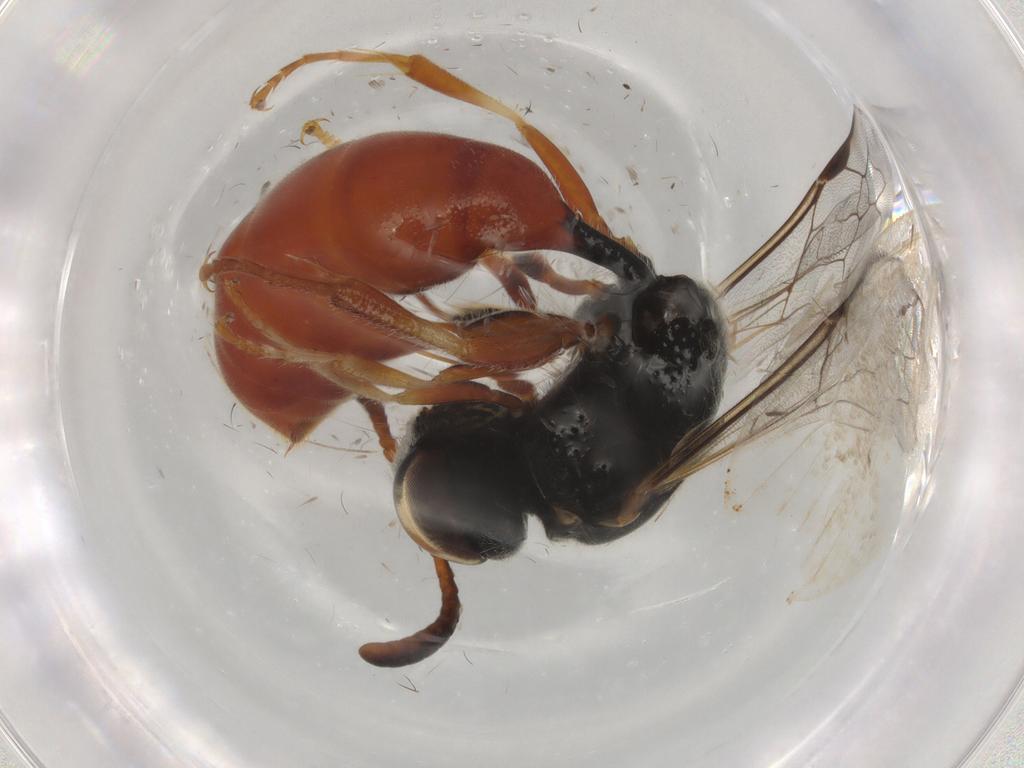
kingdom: Animalia
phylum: Arthropoda
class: Insecta
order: Hymenoptera
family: Crabronidae
